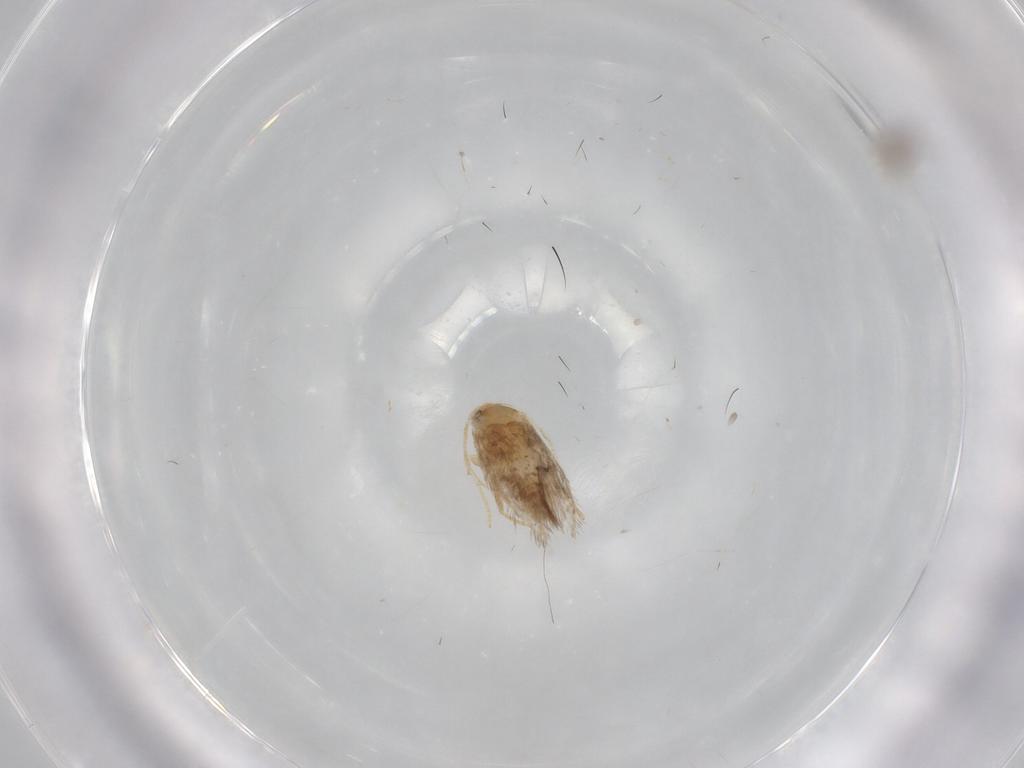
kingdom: Animalia
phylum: Arthropoda
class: Insecta
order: Lepidoptera
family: Nepticulidae
